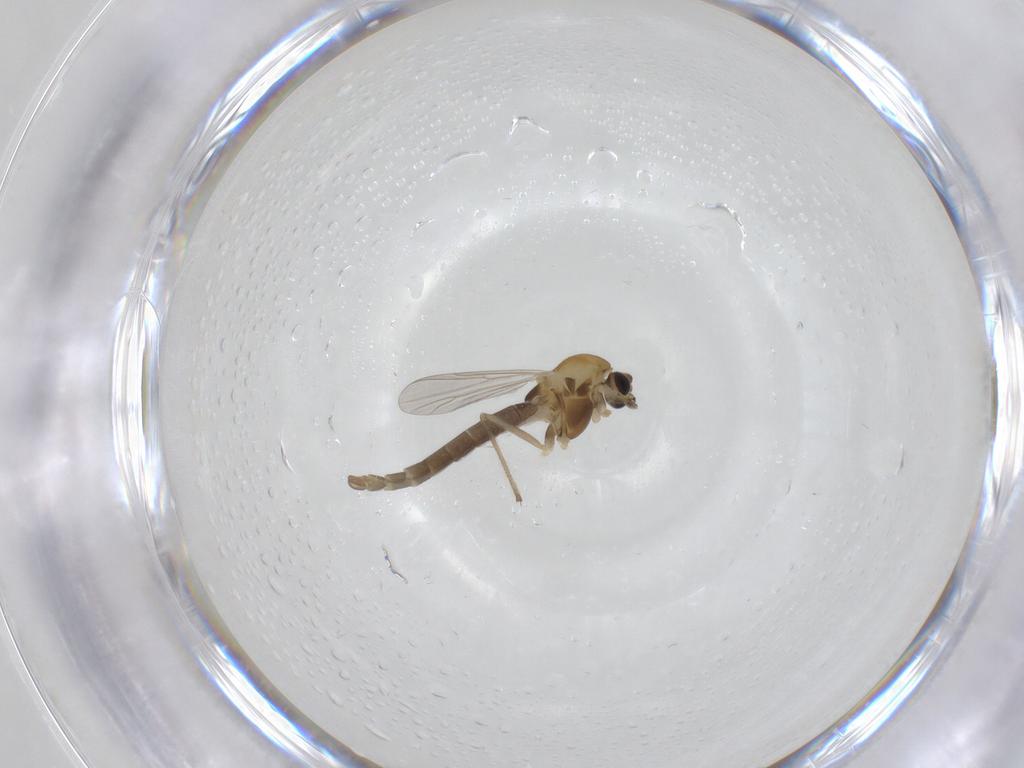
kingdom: Animalia
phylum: Arthropoda
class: Insecta
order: Diptera
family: Chironomidae
